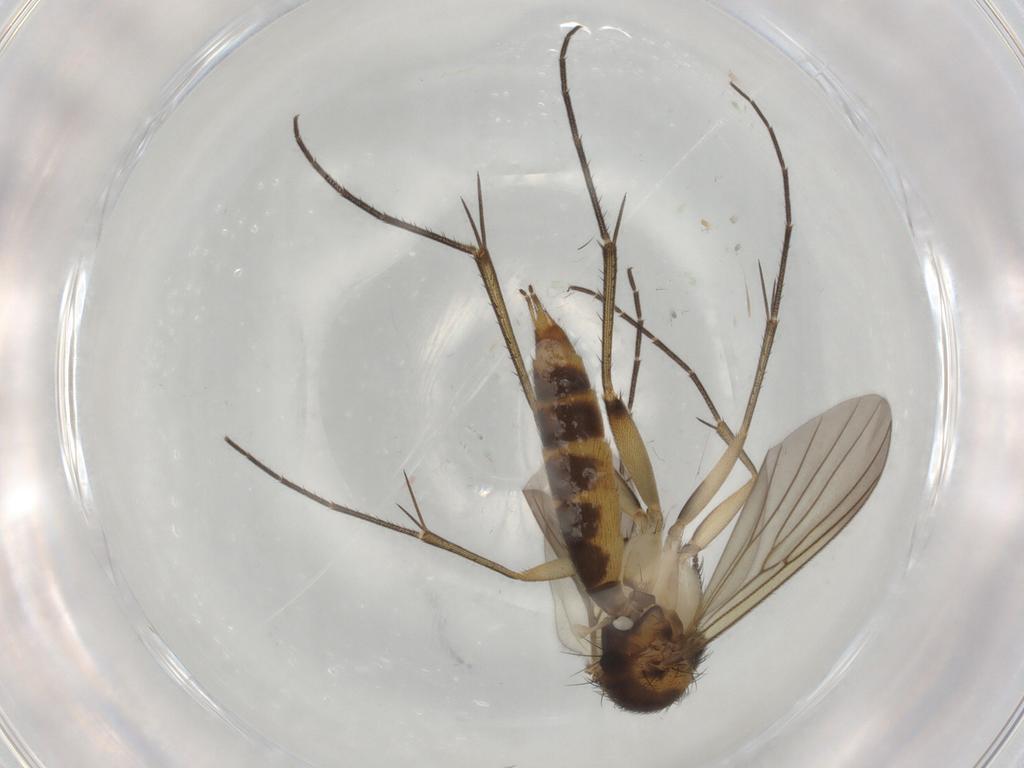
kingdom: Animalia
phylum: Arthropoda
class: Insecta
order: Diptera
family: Mycetophilidae
